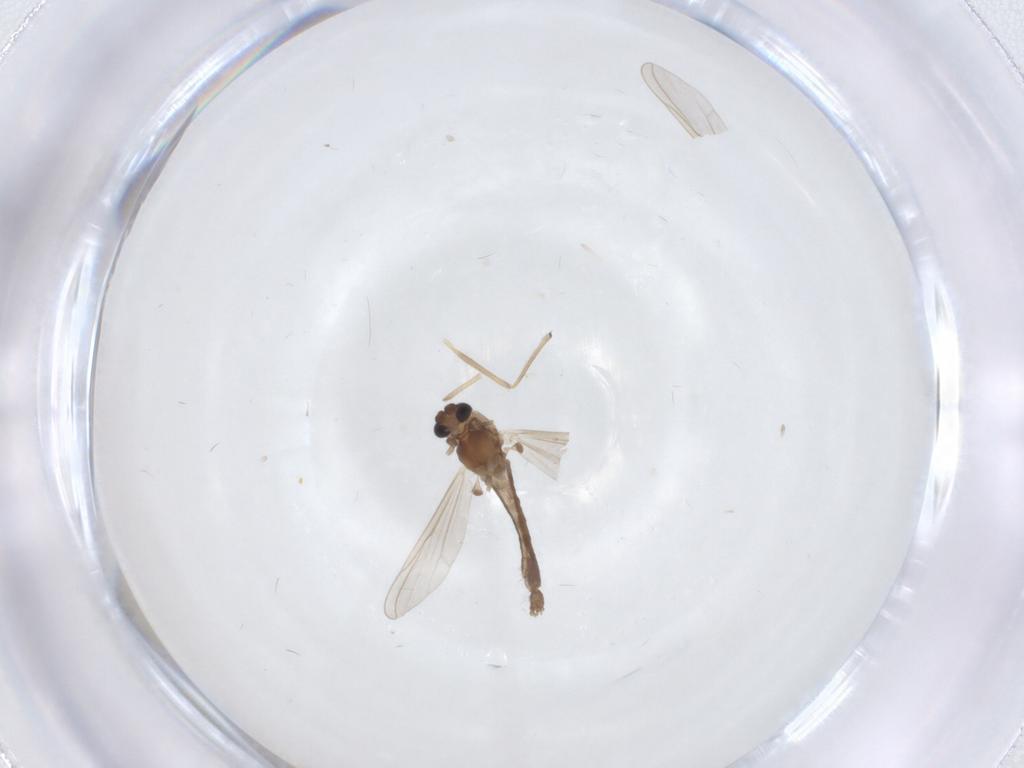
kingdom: Animalia
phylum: Arthropoda
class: Insecta
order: Diptera
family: Chironomidae
